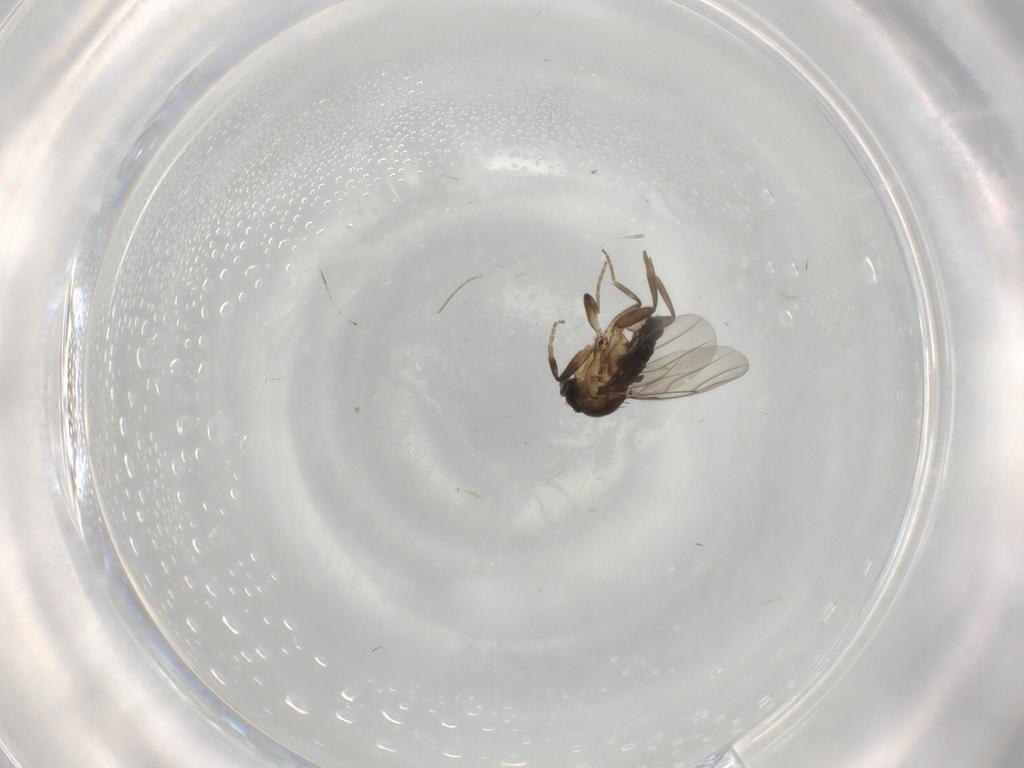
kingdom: Animalia
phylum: Arthropoda
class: Insecta
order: Diptera
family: Phoridae
